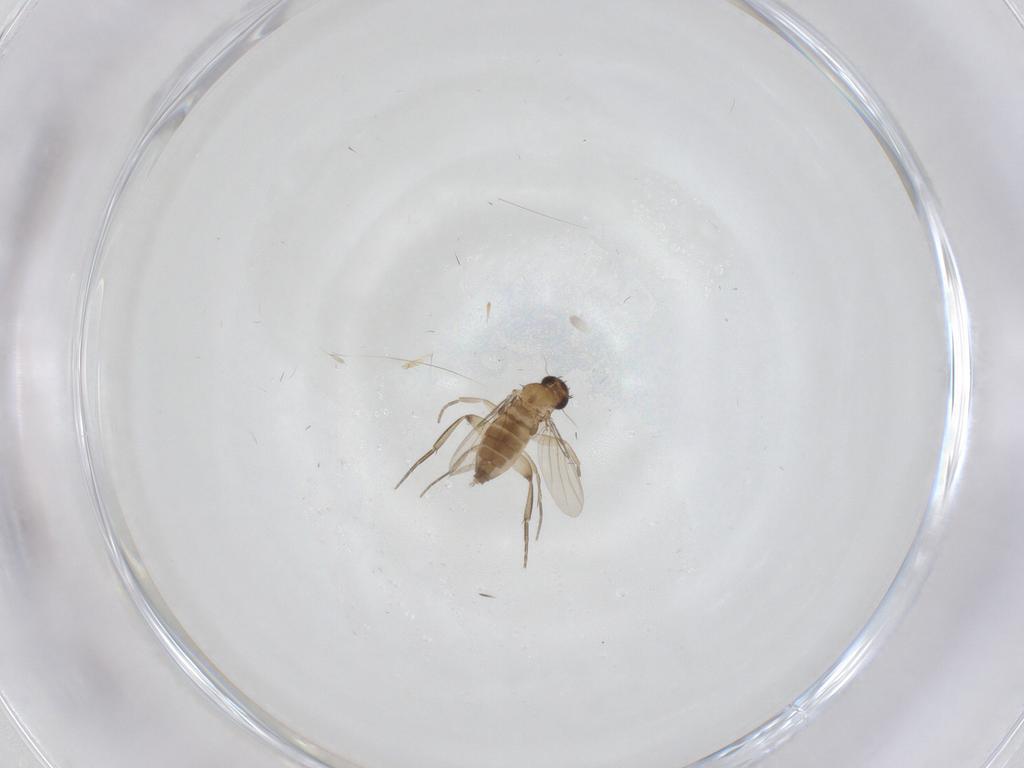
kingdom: Animalia
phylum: Arthropoda
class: Insecta
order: Diptera
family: Phoridae
